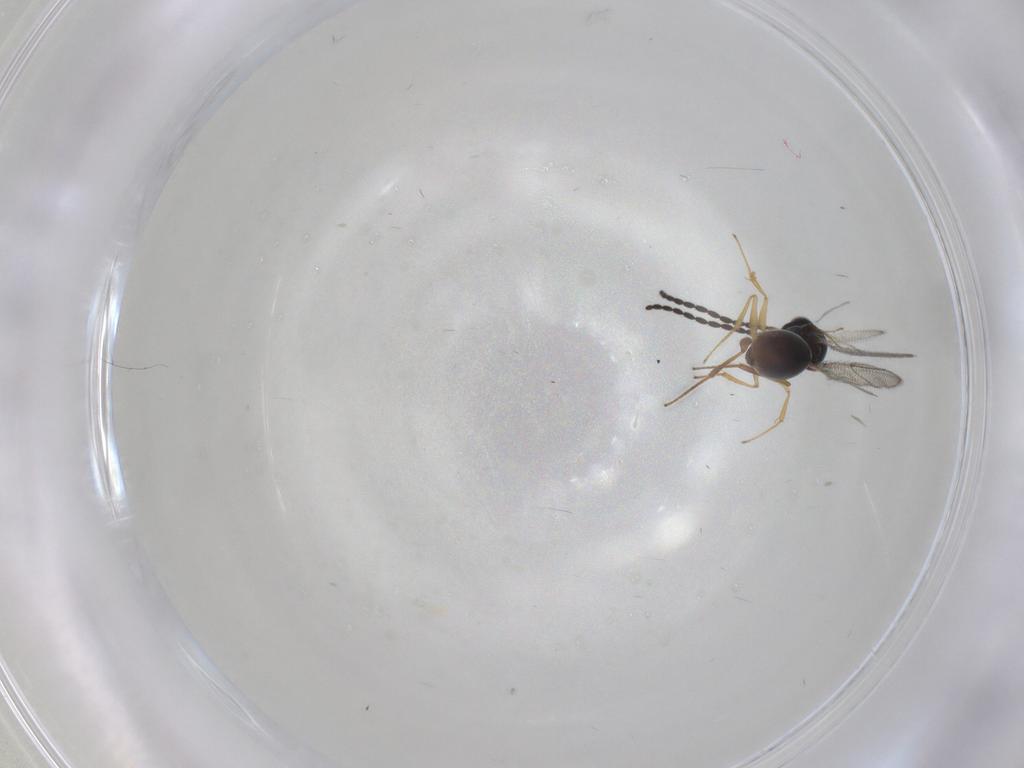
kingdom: Animalia
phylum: Arthropoda
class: Insecta
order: Hymenoptera
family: Figitidae
